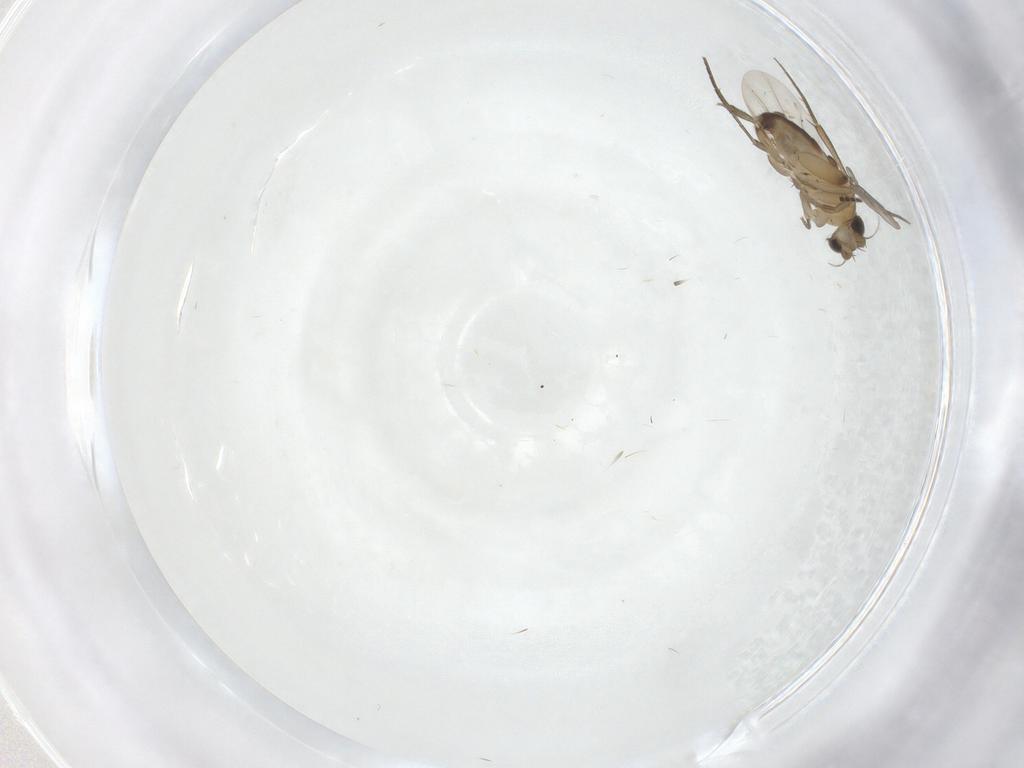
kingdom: Animalia
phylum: Arthropoda
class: Insecta
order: Diptera
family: Phoridae
